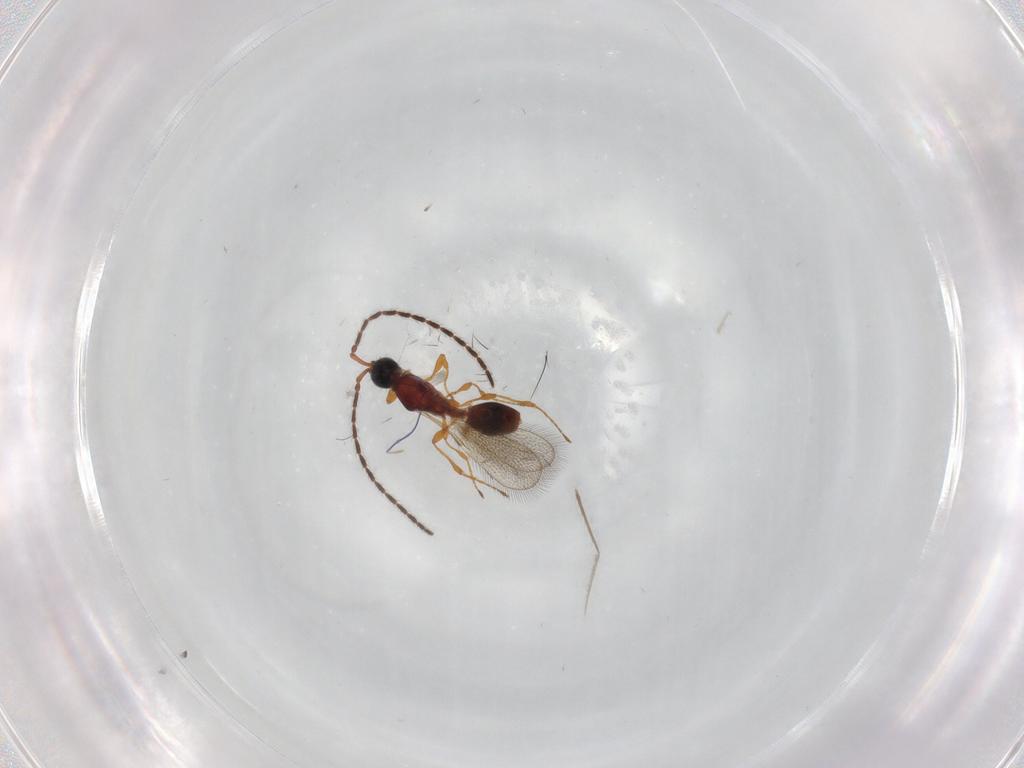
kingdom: Animalia
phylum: Arthropoda
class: Insecta
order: Hymenoptera
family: Diapriidae
